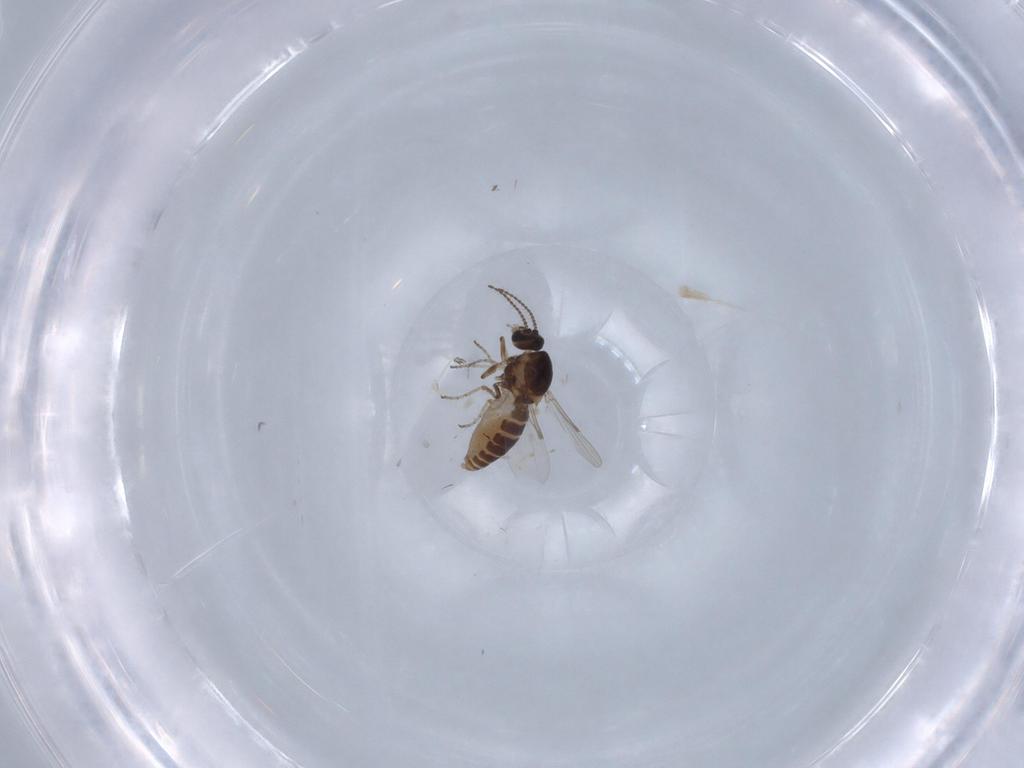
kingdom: Animalia
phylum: Arthropoda
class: Insecta
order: Diptera
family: Ceratopogonidae
